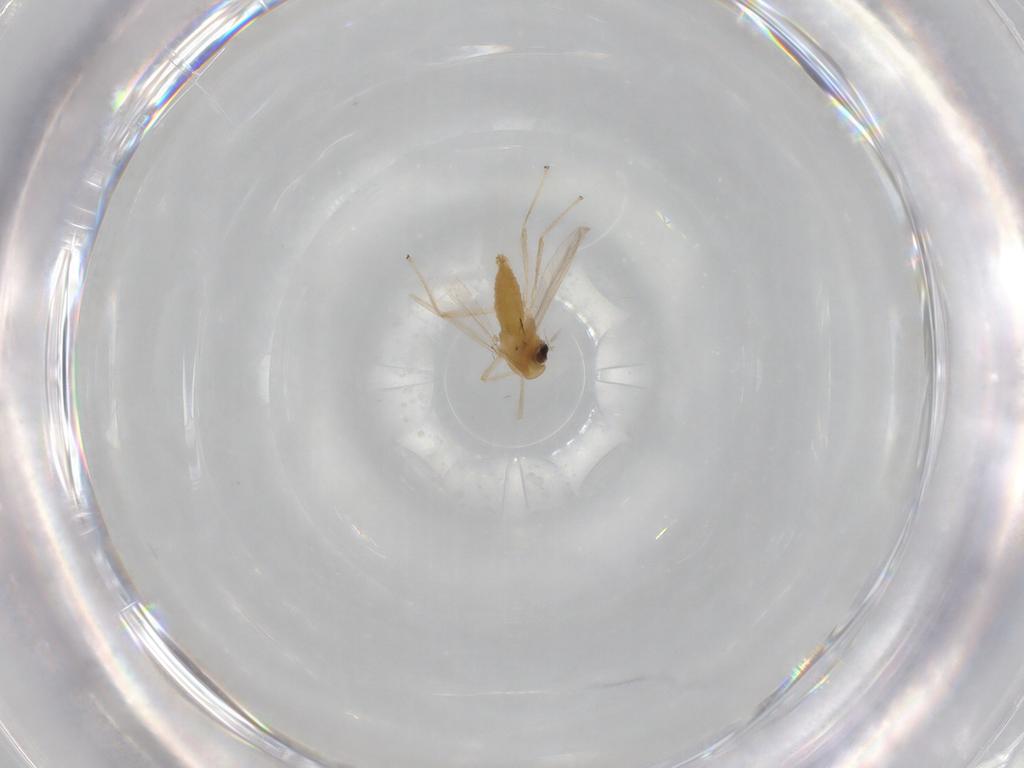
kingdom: Animalia
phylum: Arthropoda
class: Insecta
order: Diptera
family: Chironomidae
